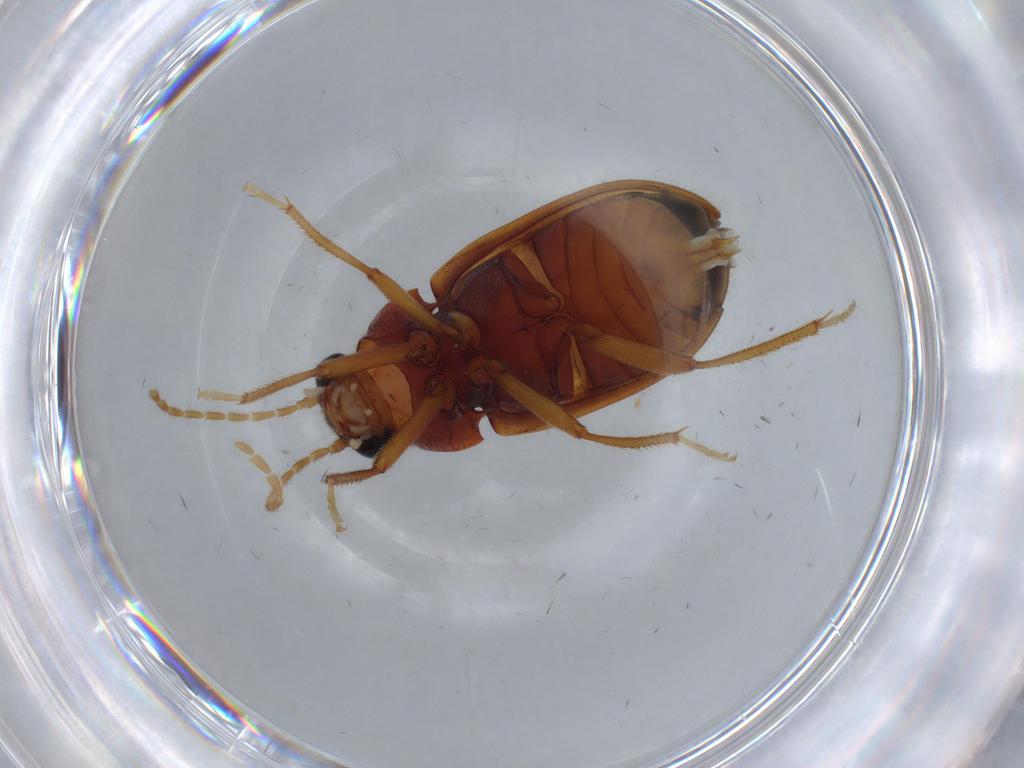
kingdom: Animalia
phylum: Arthropoda
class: Insecta
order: Coleoptera
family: Ptilodactylidae
